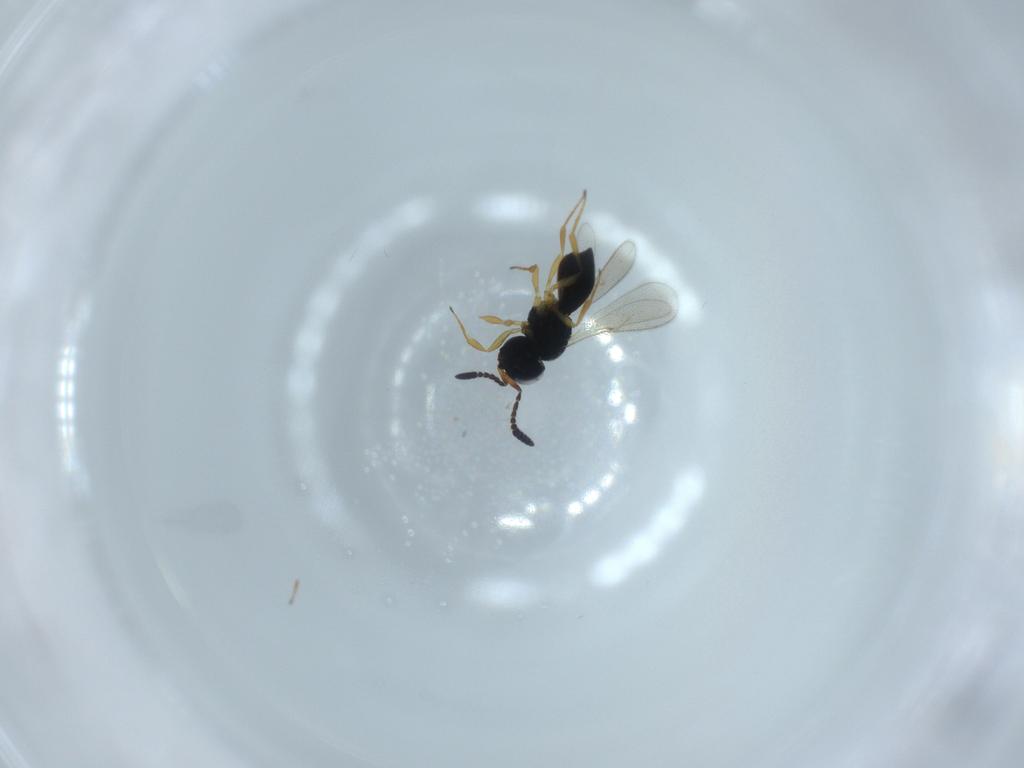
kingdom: Animalia
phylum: Arthropoda
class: Insecta
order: Hymenoptera
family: Scelionidae
